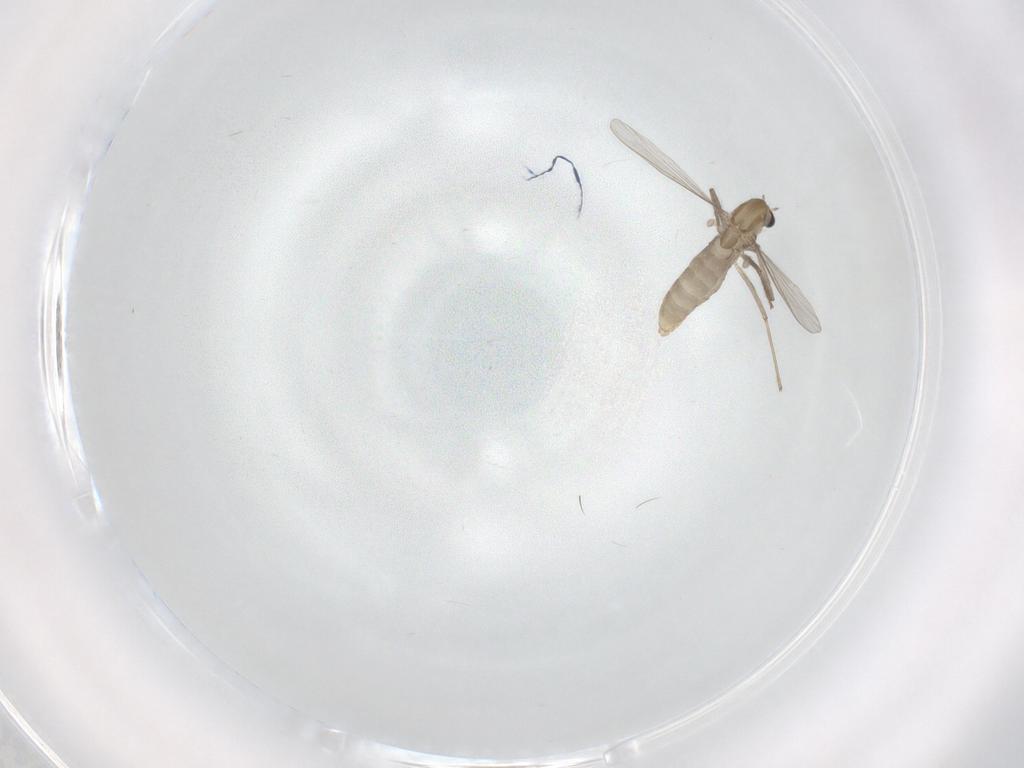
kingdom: Animalia
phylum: Arthropoda
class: Insecta
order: Diptera
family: Chironomidae
